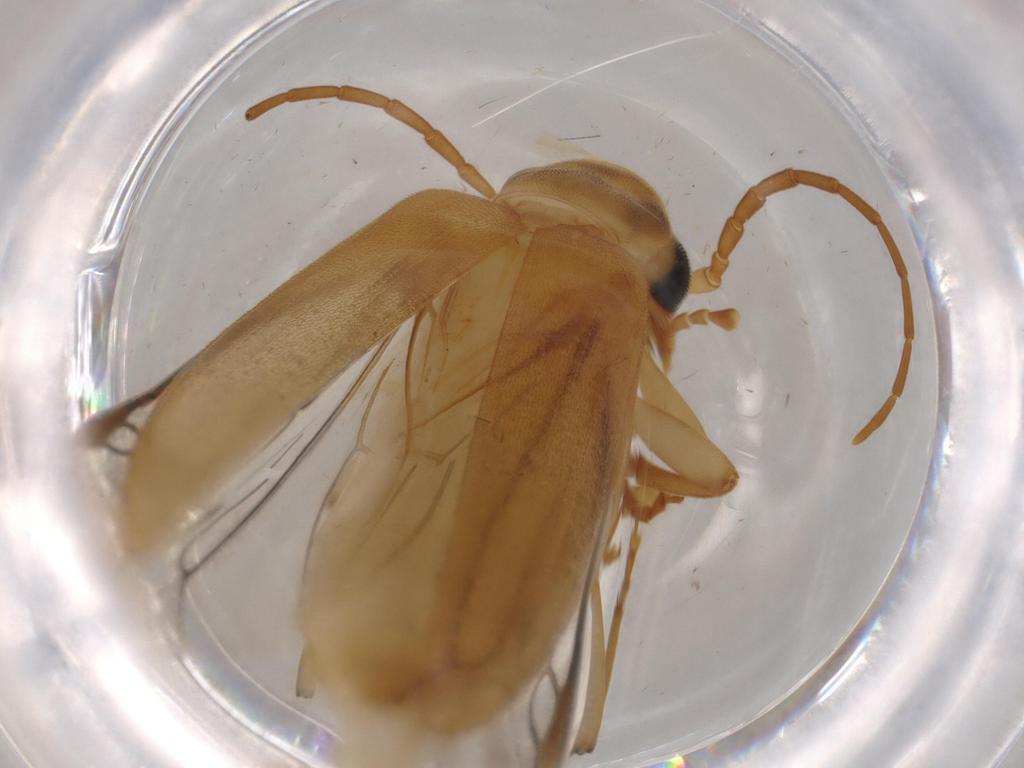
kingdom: Animalia
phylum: Arthropoda
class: Insecta
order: Coleoptera
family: Oedemeridae
